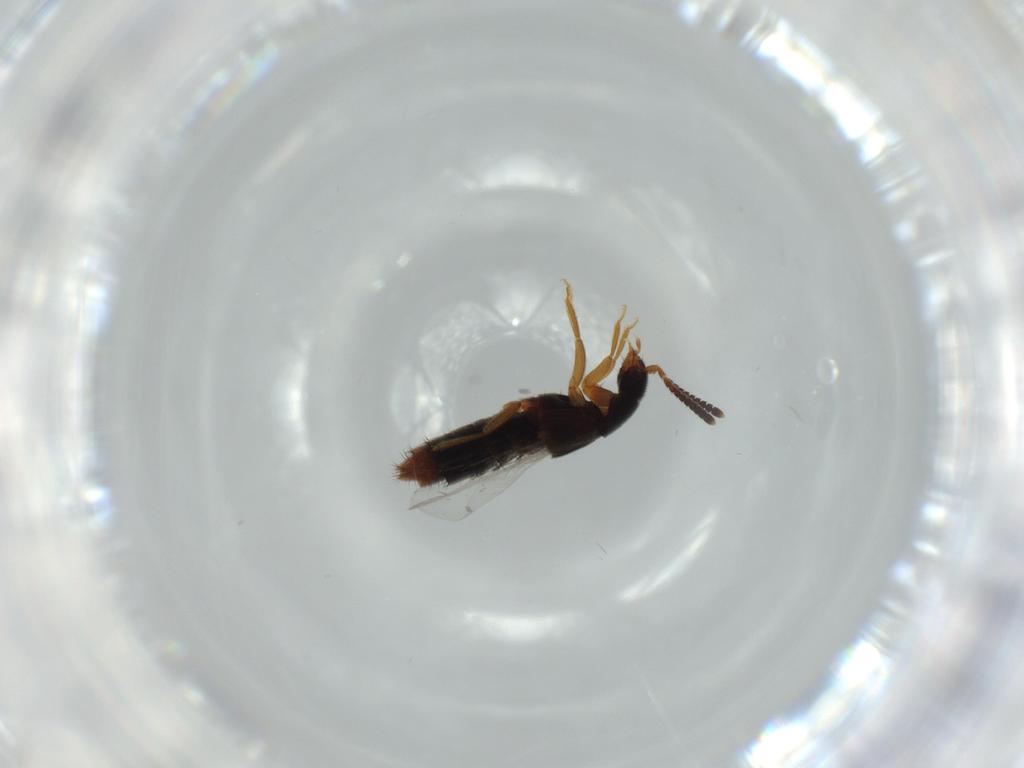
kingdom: Animalia
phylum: Arthropoda
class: Insecta
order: Coleoptera
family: Staphylinidae
